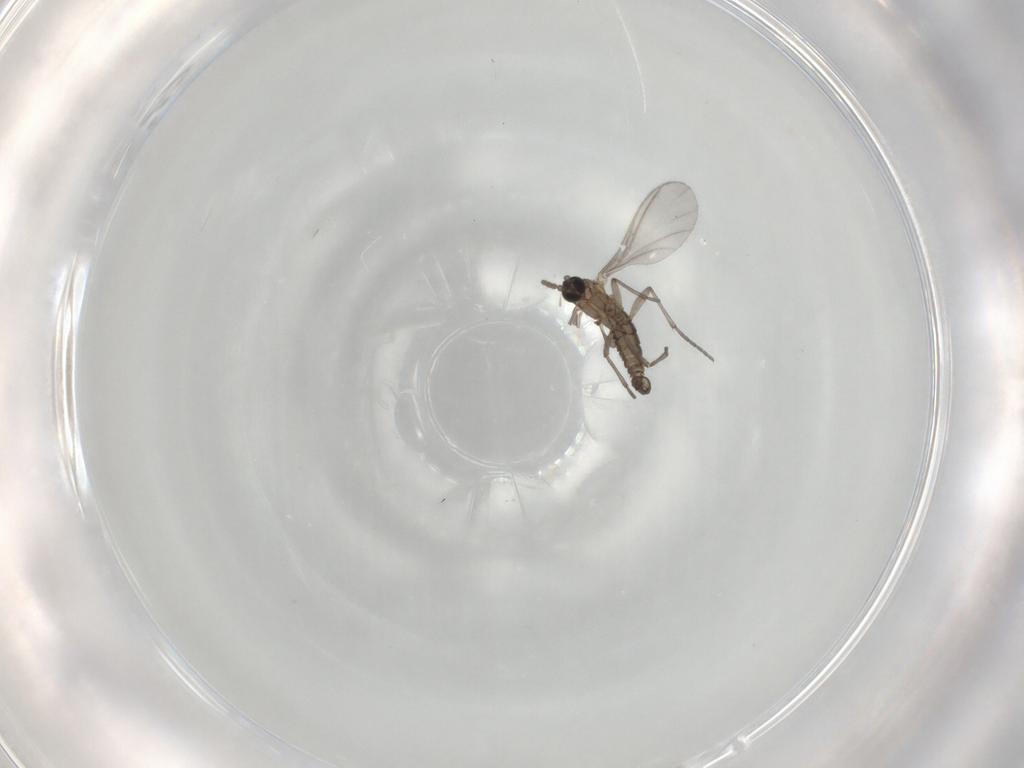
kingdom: Animalia
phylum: Arthropoda
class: Insecta
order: Diptera
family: Sciaridae
